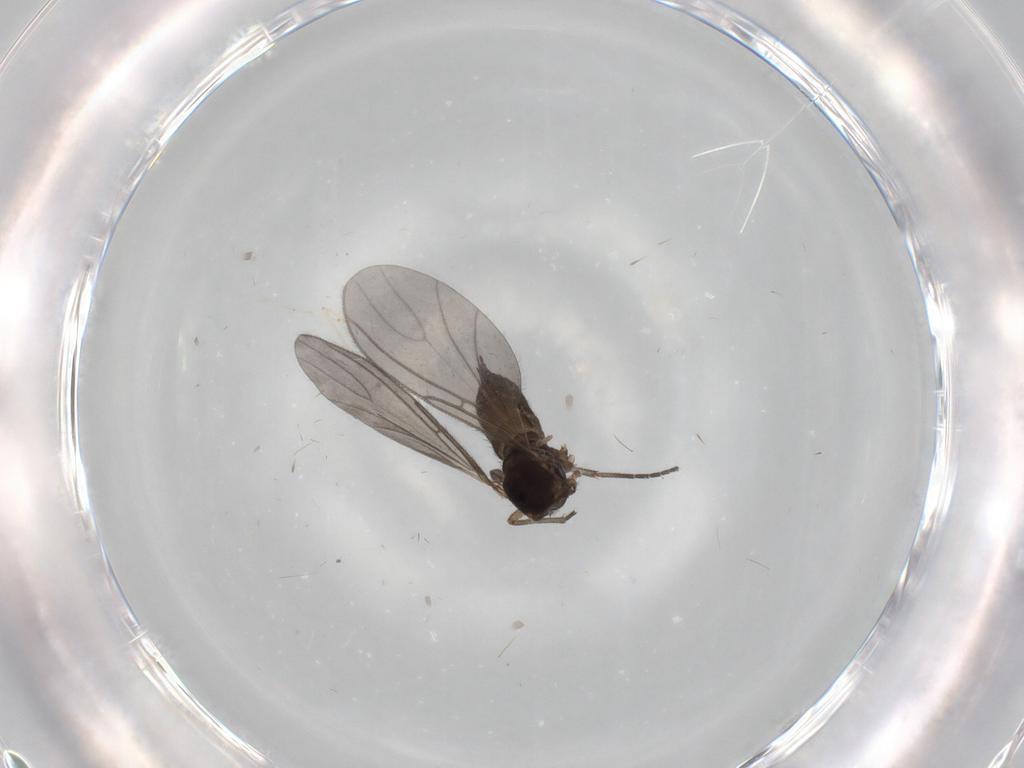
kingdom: Animalia
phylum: Arthropoda
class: Insecta
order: Diptera
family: Sciaridae
